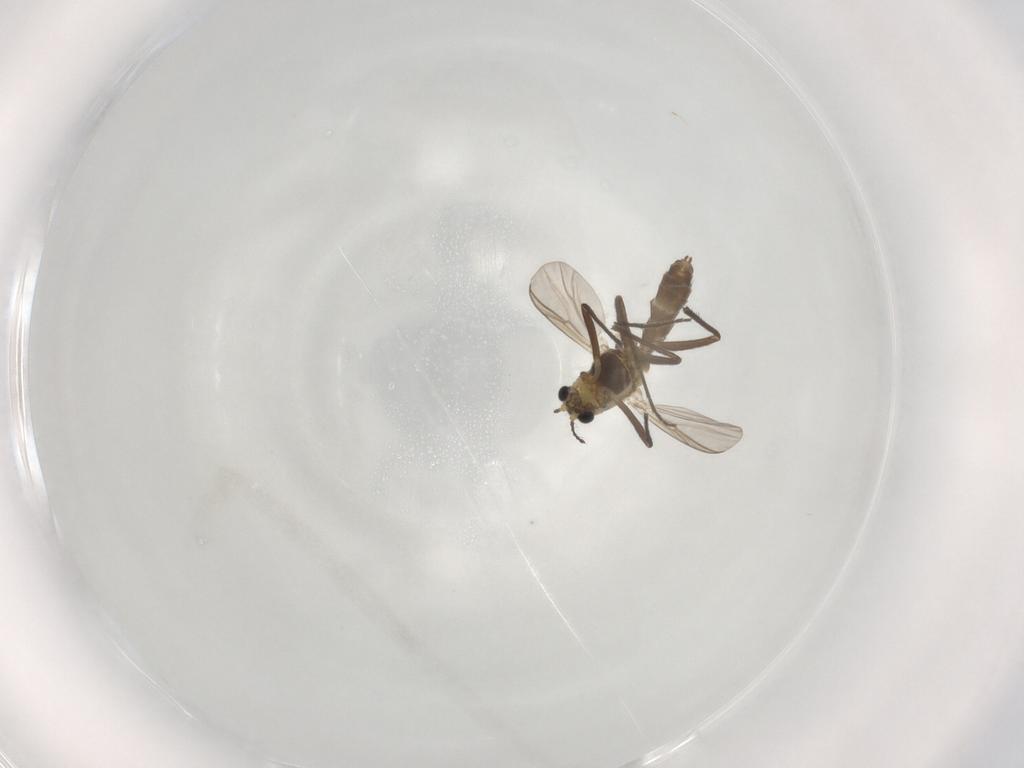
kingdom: Animalia
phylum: Arthropoda
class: Insecta
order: Diptera
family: Chironomidae
